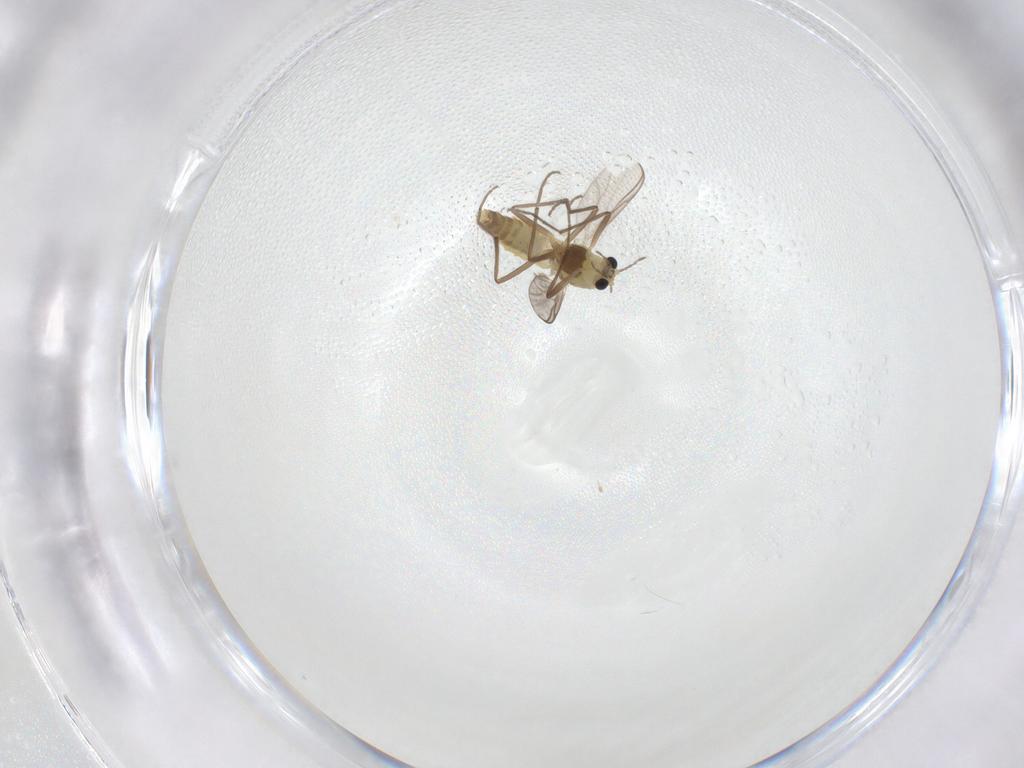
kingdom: Animalia
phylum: Arthropoda
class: Insecta
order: Diptera
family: Chironomidae
